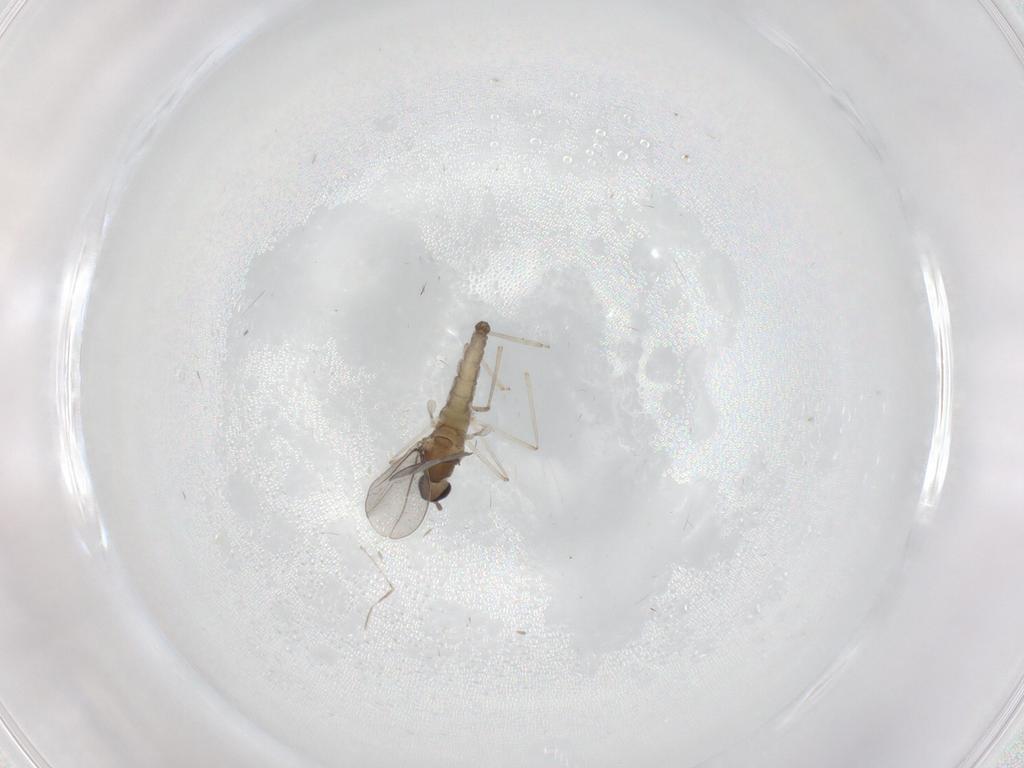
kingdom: Animalia
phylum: Arthropoda
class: Insecta
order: Diptera
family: Cecidomyiidae
